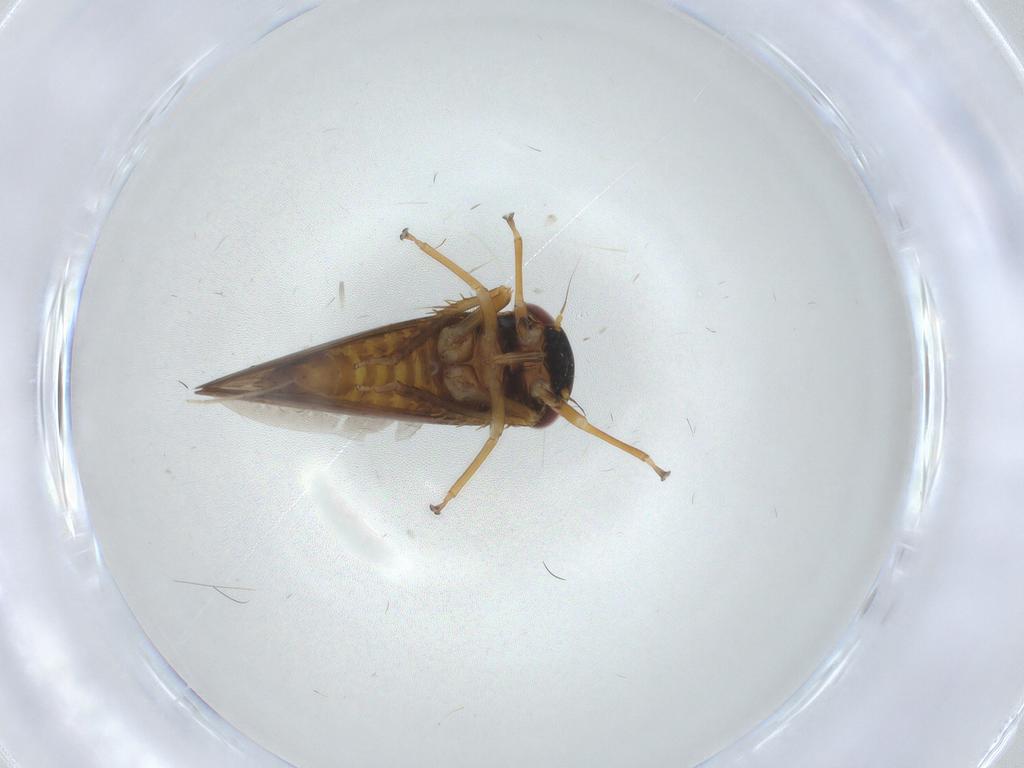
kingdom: Animalia
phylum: Arthropoda
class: Insecta
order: Hemiptera
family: Cicadellidae
